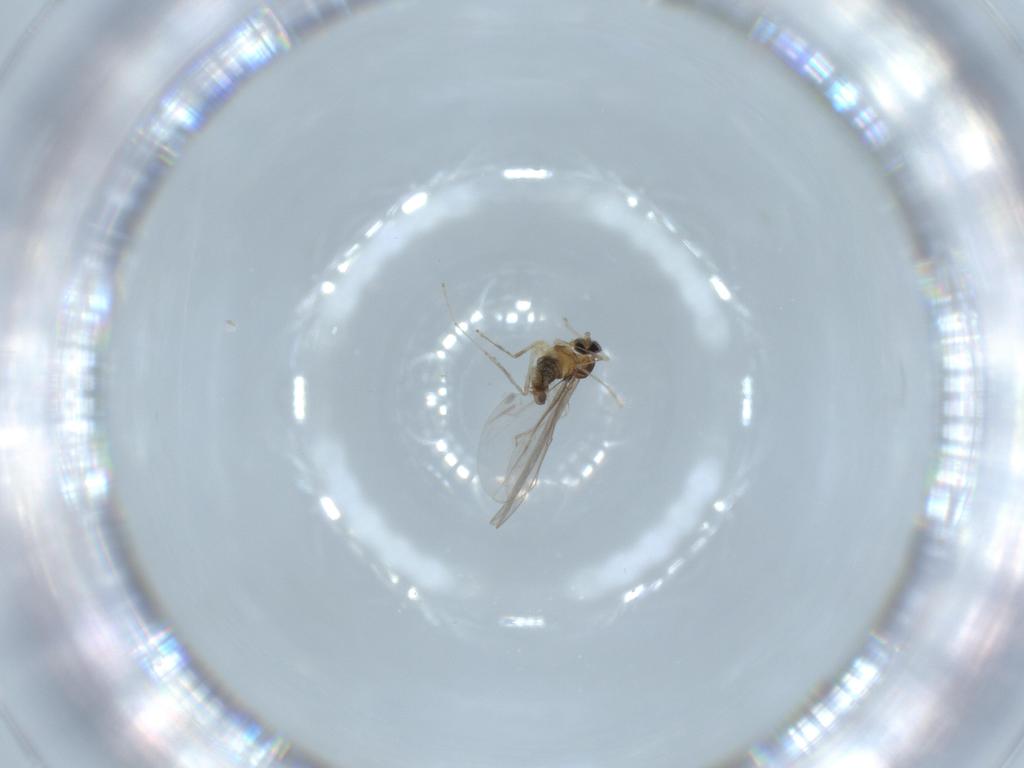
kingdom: Animalia
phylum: Arthropoda
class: Insecta
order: Diptera
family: Cecidomyiidae
